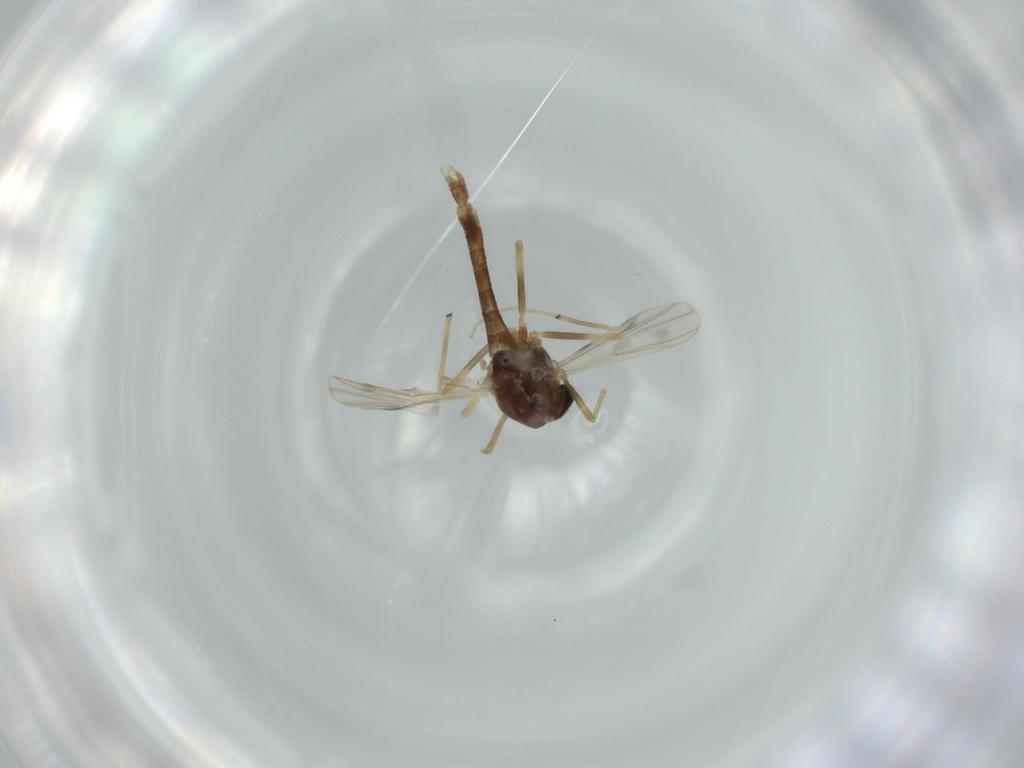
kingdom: Animalia
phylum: Arthropoda
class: Insecta
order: Diptera
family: Chironomidae
